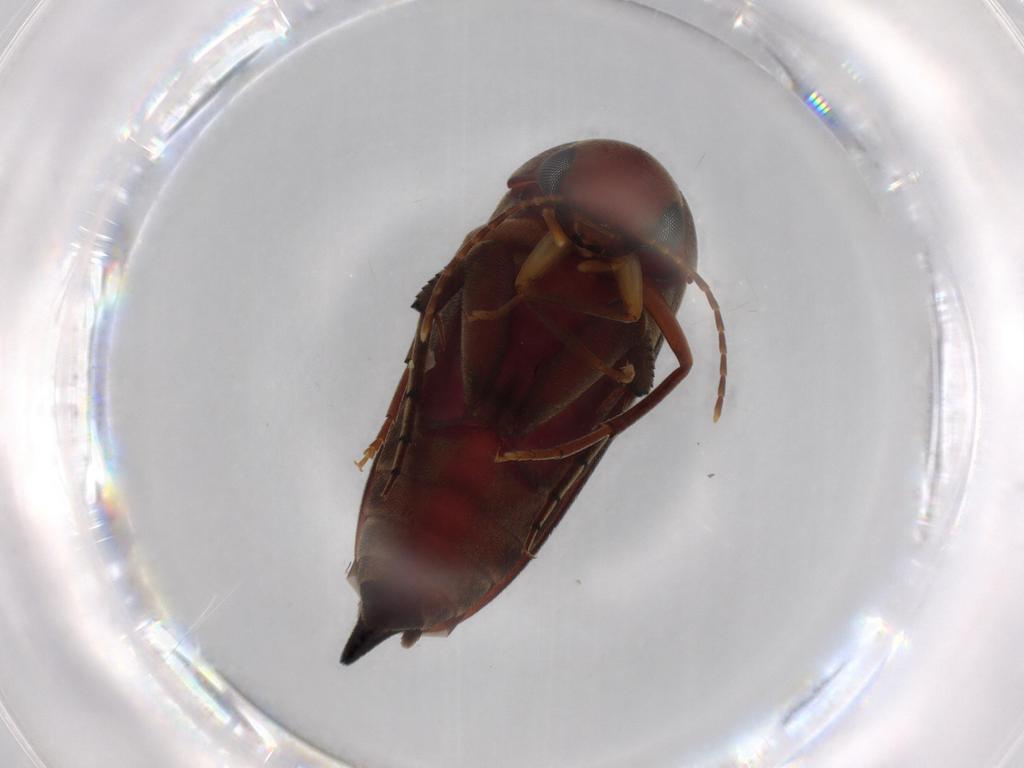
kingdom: Animalia
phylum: Arthropoda
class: Insecta
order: Coleoptera
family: Mordellidae
